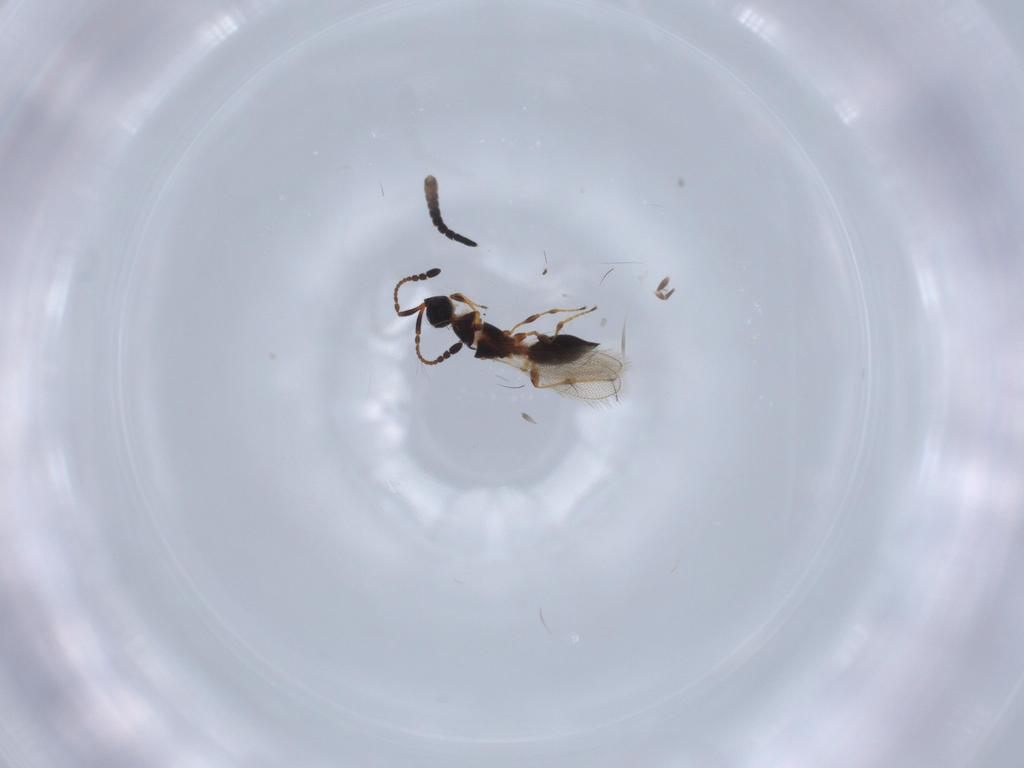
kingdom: Animalia
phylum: Arthropoda
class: Insecta
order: Hymenoptera
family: Diapriidae
